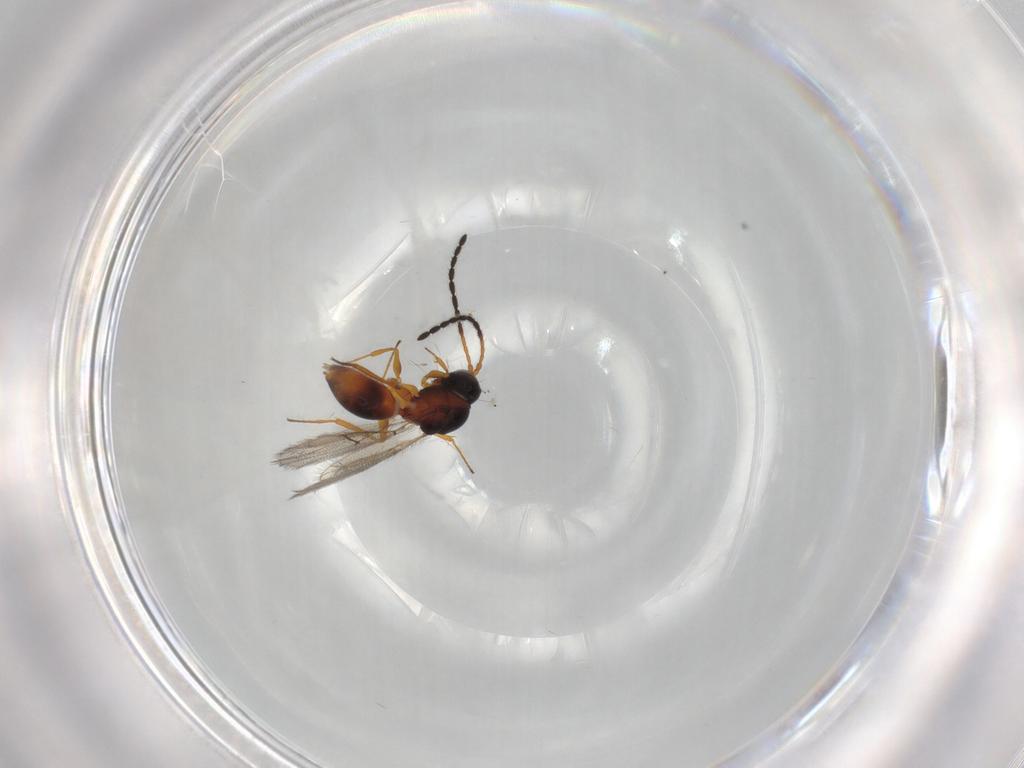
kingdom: Animalia
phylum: Arthropoda
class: Insecta
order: Hymenoptera
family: Figitidae
